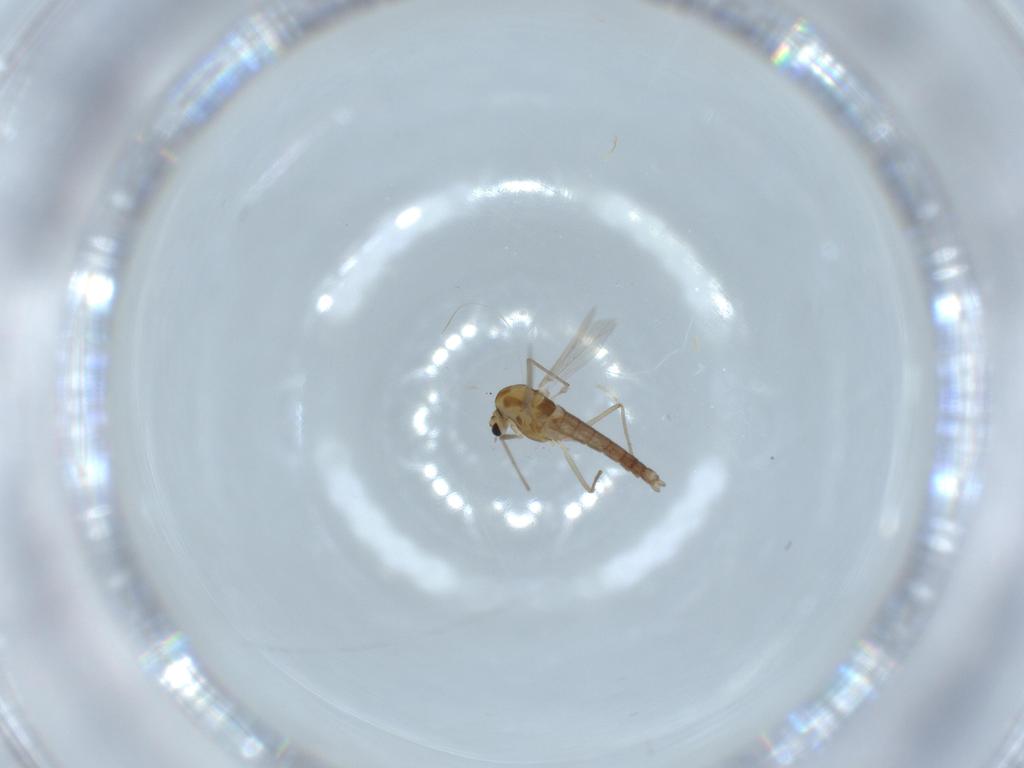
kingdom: Animalia
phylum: Arthropoda
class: Insecta
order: Diptera
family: Chironomidae
